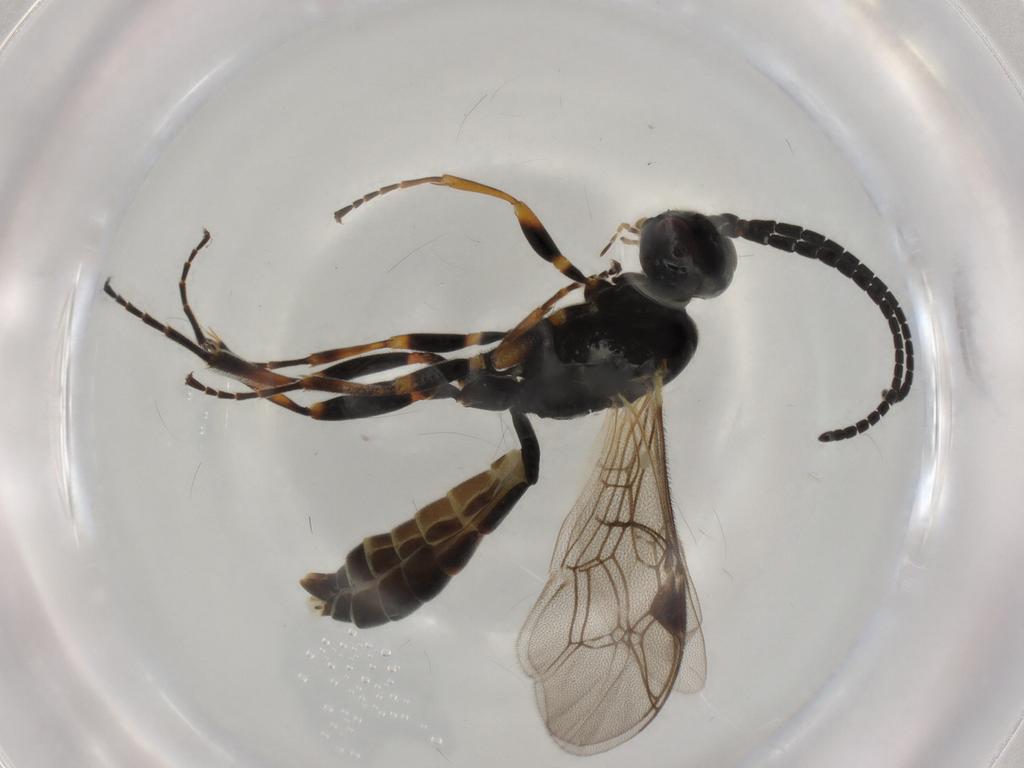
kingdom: Animalia
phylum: Arthropoda
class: Insecta
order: Hymenoptera
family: Ichneumonidae
